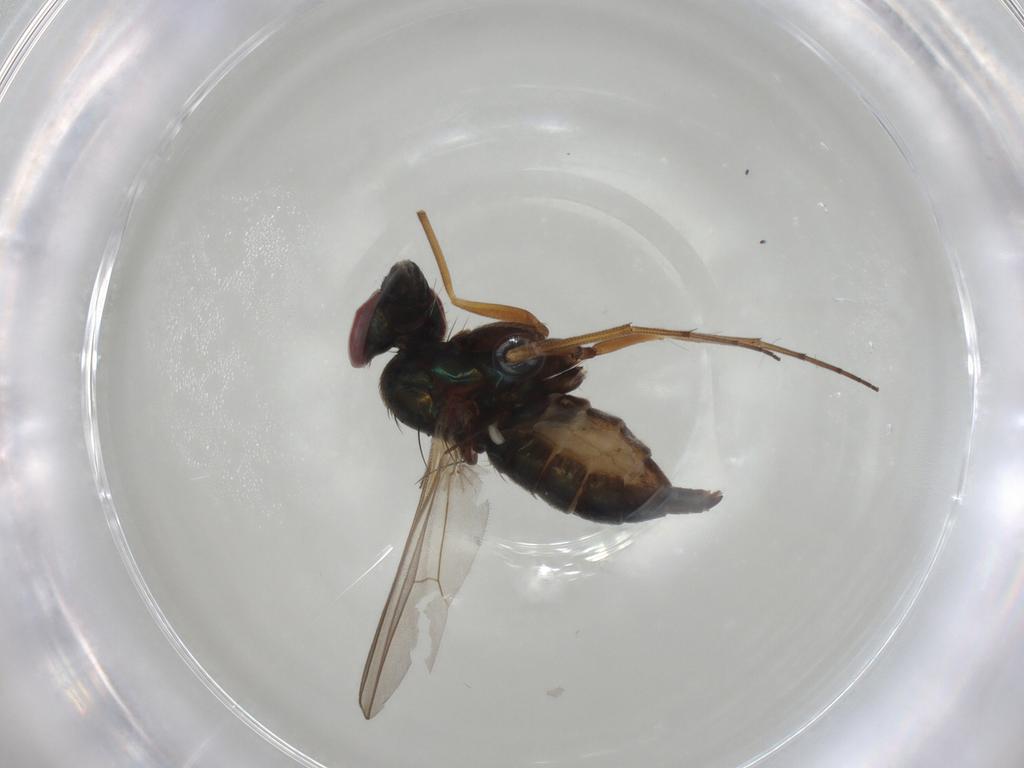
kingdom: Animalia
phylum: Arthropoda
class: Insecta
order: Diptera
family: Dolichopodidae
